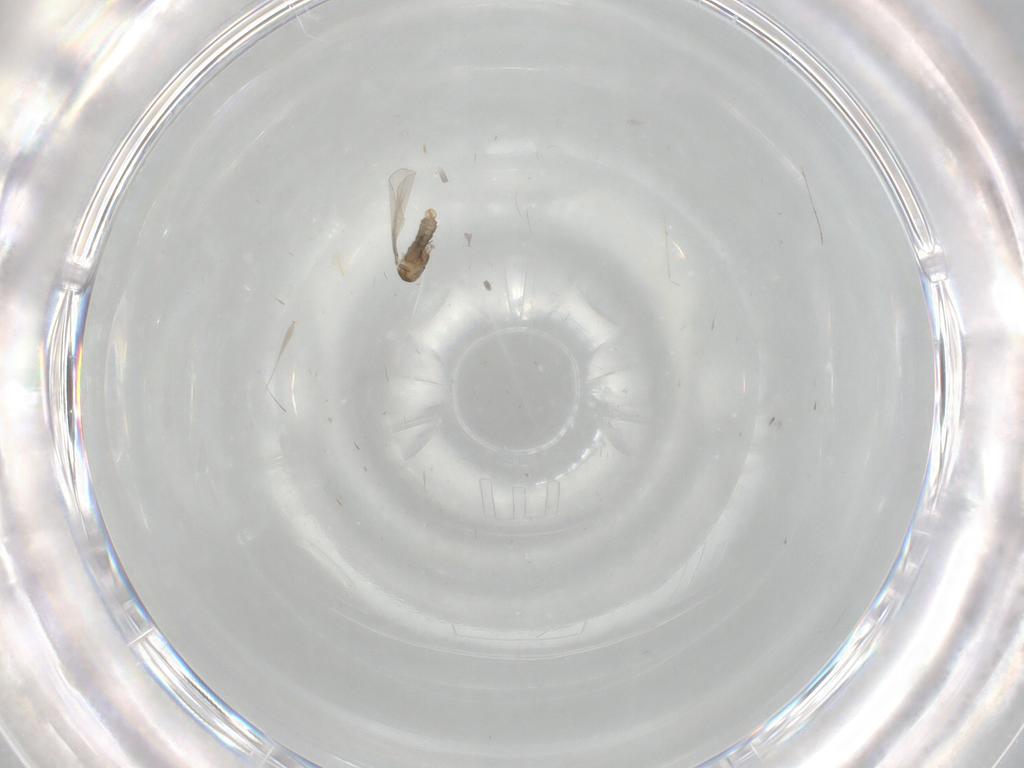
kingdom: Animalia
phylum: Arthropoda
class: Insecta
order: Diptera
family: Cecidomyiidae
